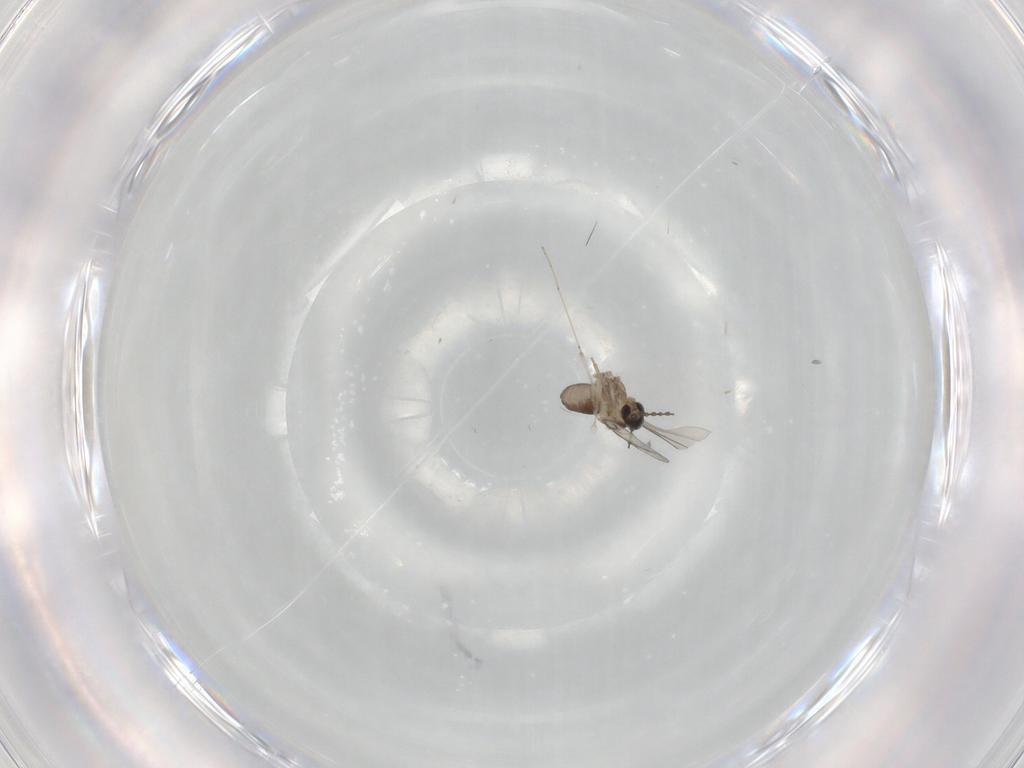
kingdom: Animalia
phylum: Arthropoda
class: Insecta
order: Diptera
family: Cecidomyiidae
